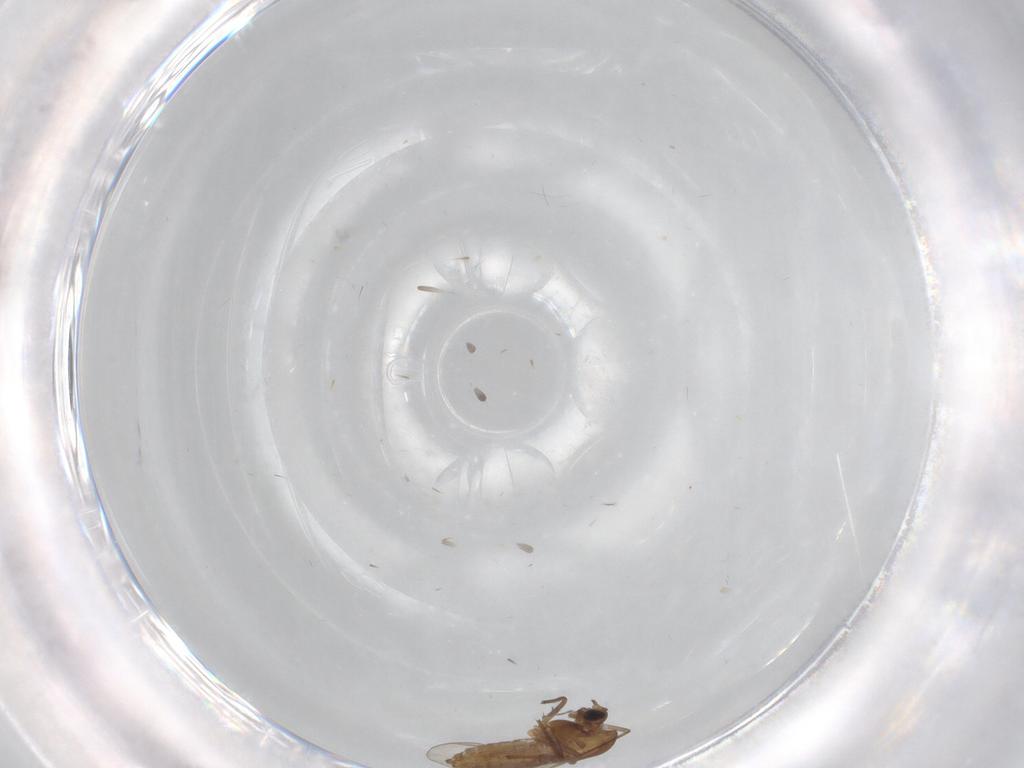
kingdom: Animalia
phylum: Arthropoda
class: Insecta
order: Diptera
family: Chironomidae
